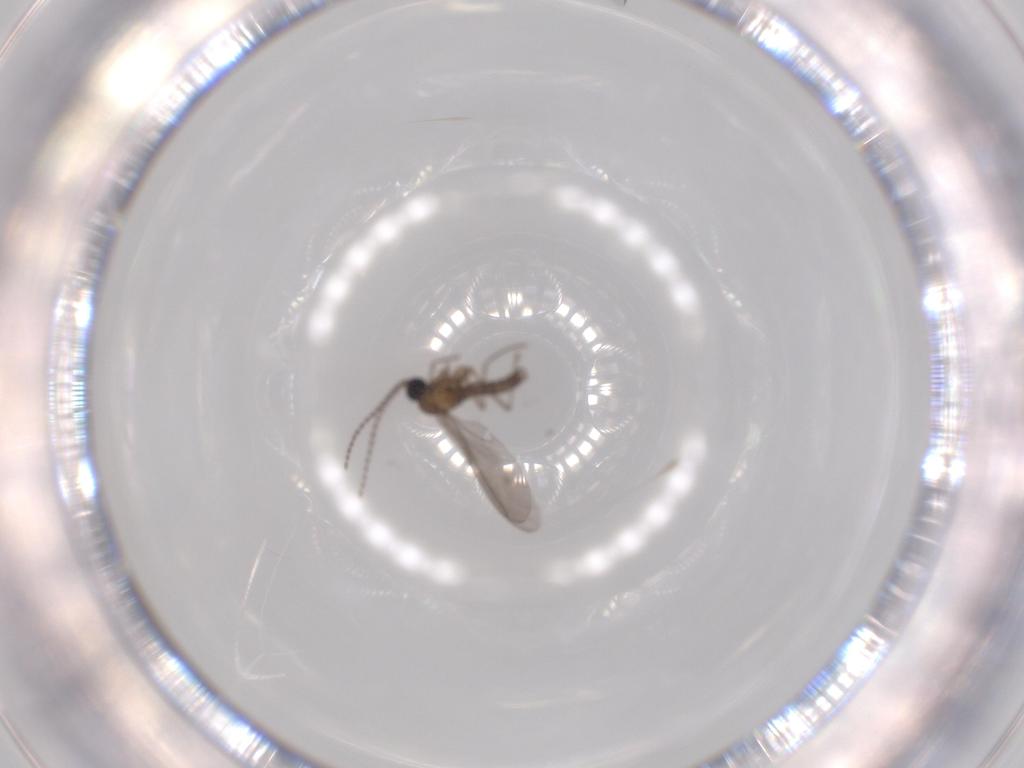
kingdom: Animalia
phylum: Arthropoda
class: Insecta
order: Diptera
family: Sciaridae
